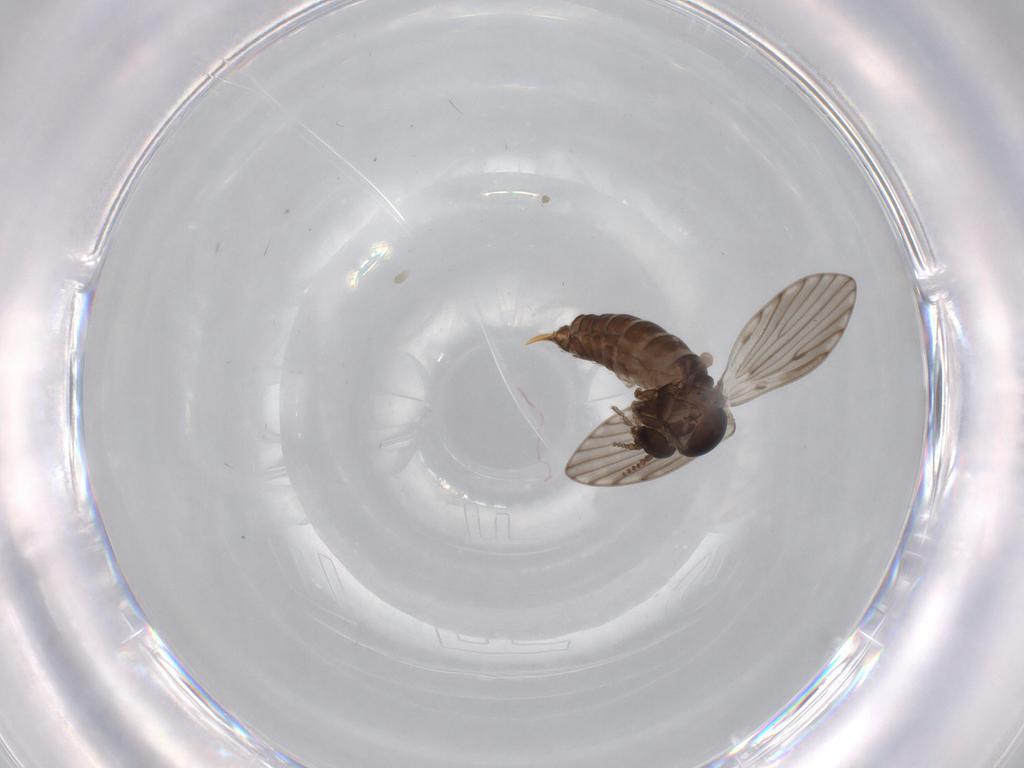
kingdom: Animalia
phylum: Arthropoda
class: Insecta
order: Diptera
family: Psychodidae
